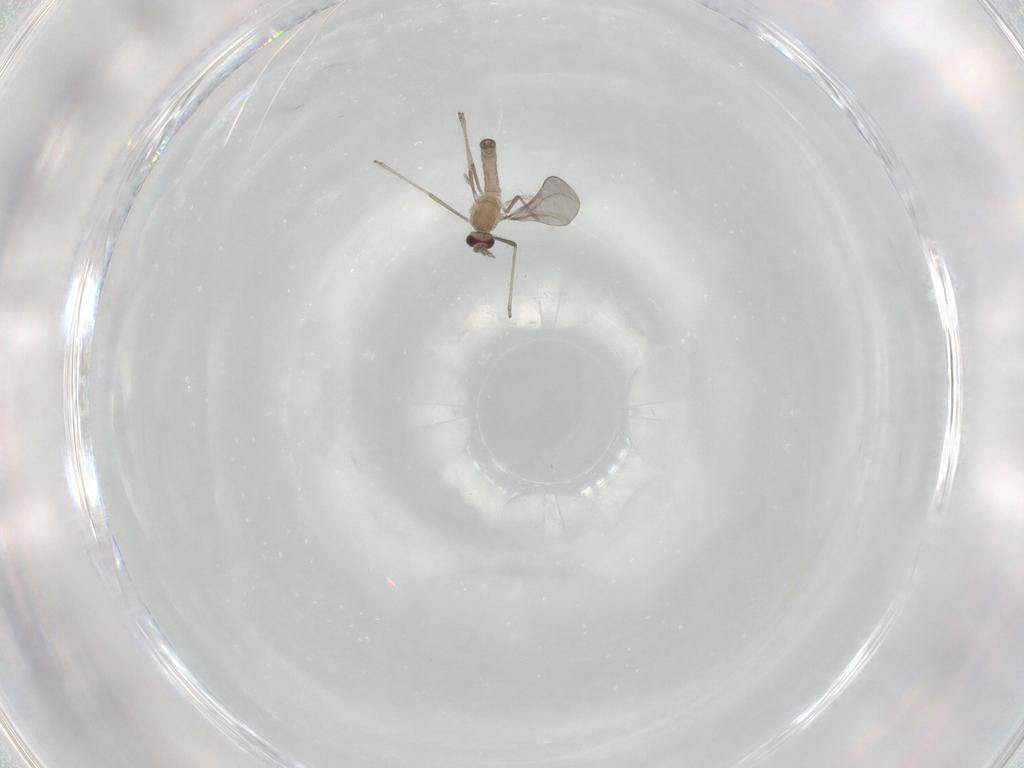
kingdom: Animalia
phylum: Arthropoda
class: Insecta
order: Diptera
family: Cecidomyiidae
